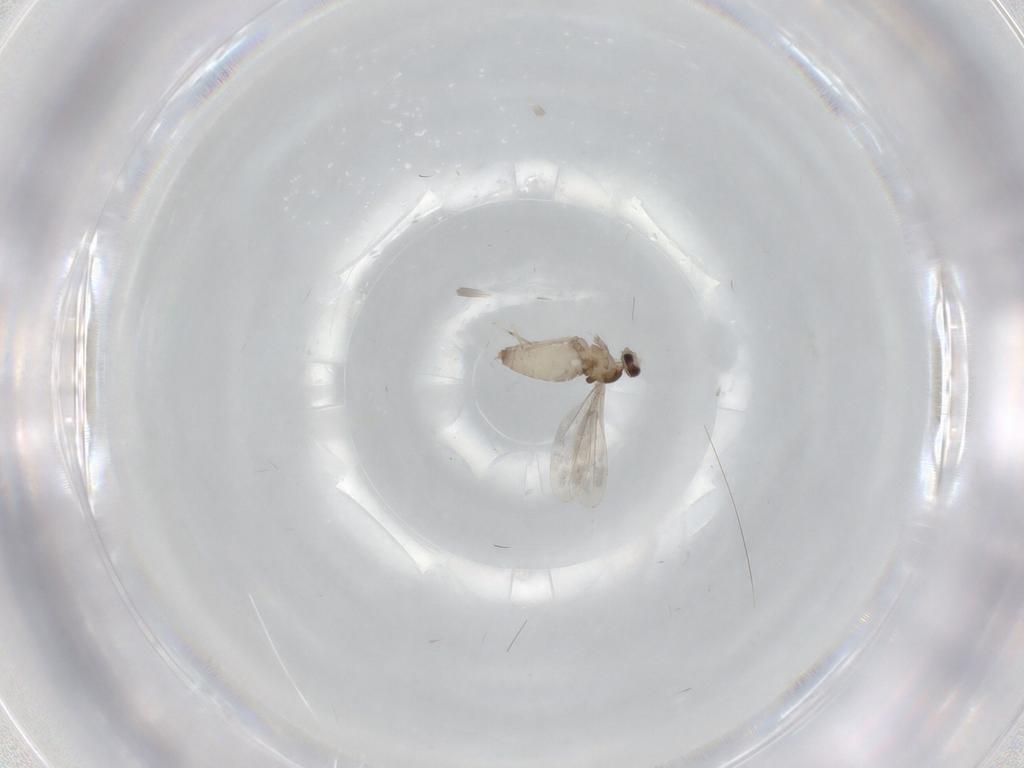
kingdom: Animalia
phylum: Arthropoda
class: Insecta
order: Diptera
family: Cecidomyiidae
